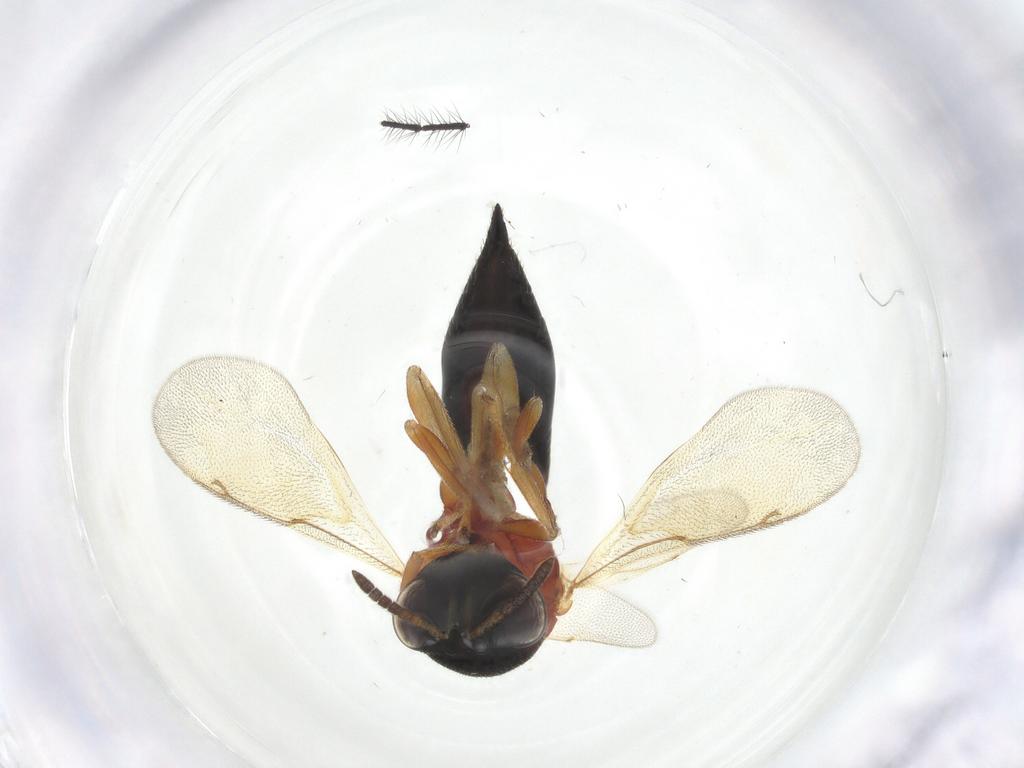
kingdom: Animalia
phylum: Arthropoda
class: Insecta
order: Hymenoptera
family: Eurytomidae
